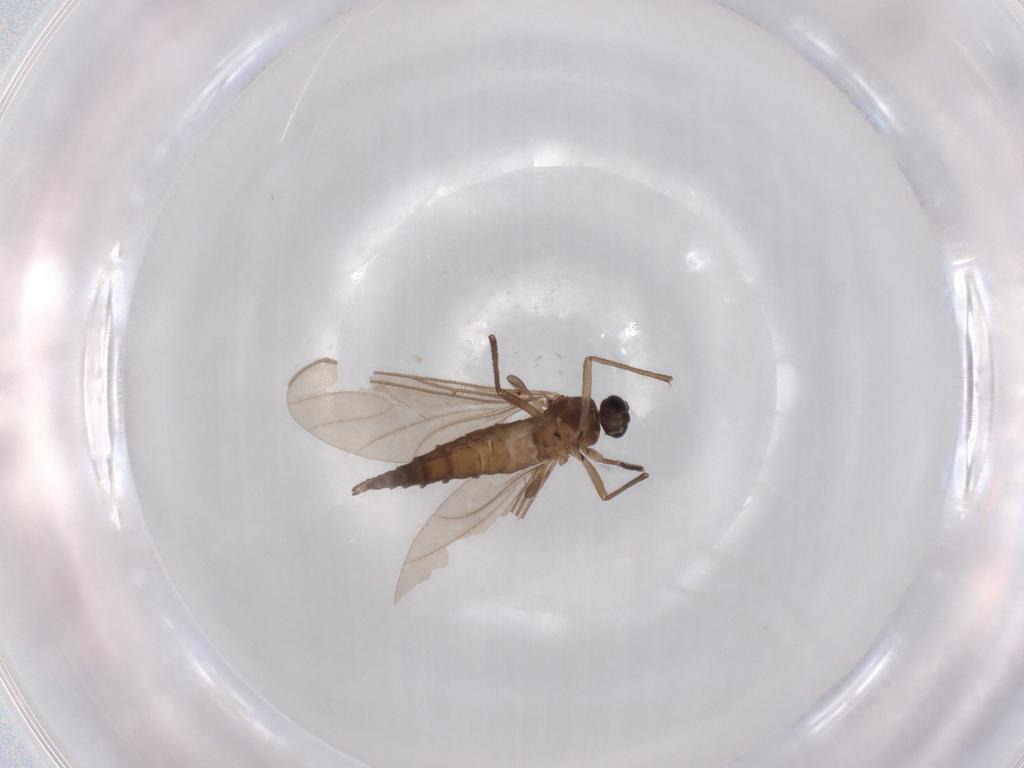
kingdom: Animalia
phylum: Arthropoda
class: Insecta
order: Diptera
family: Sciaridae
